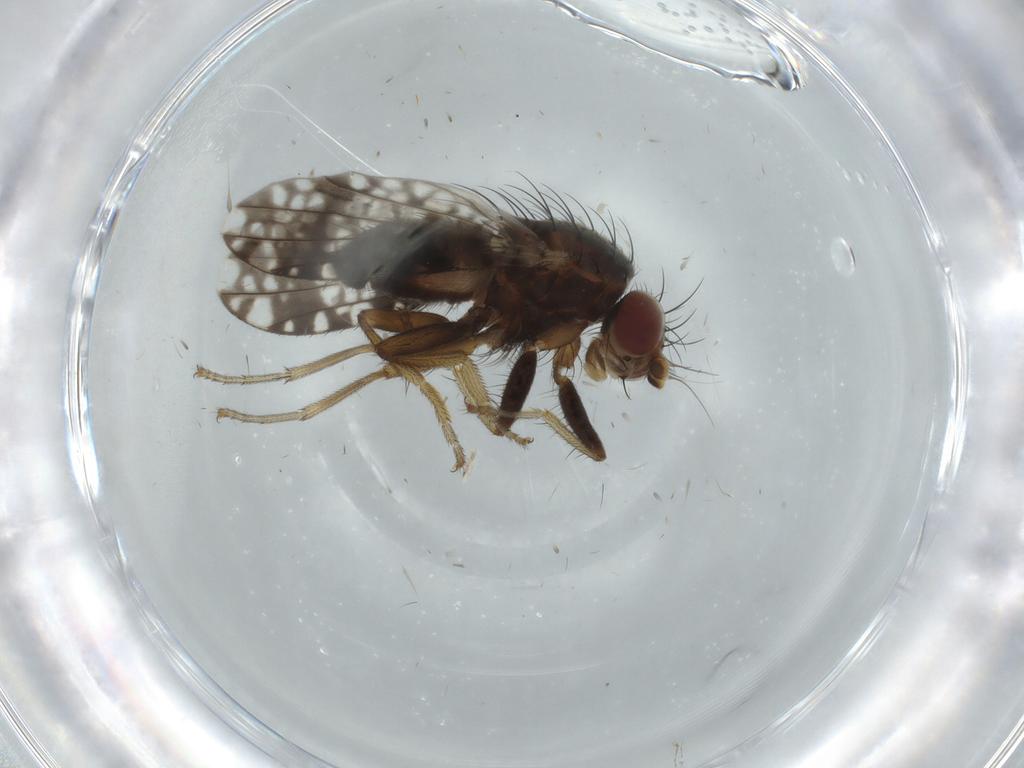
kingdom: Animalia
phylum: Arthropoda
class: Insecta
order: Diptera
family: Tephritidae
